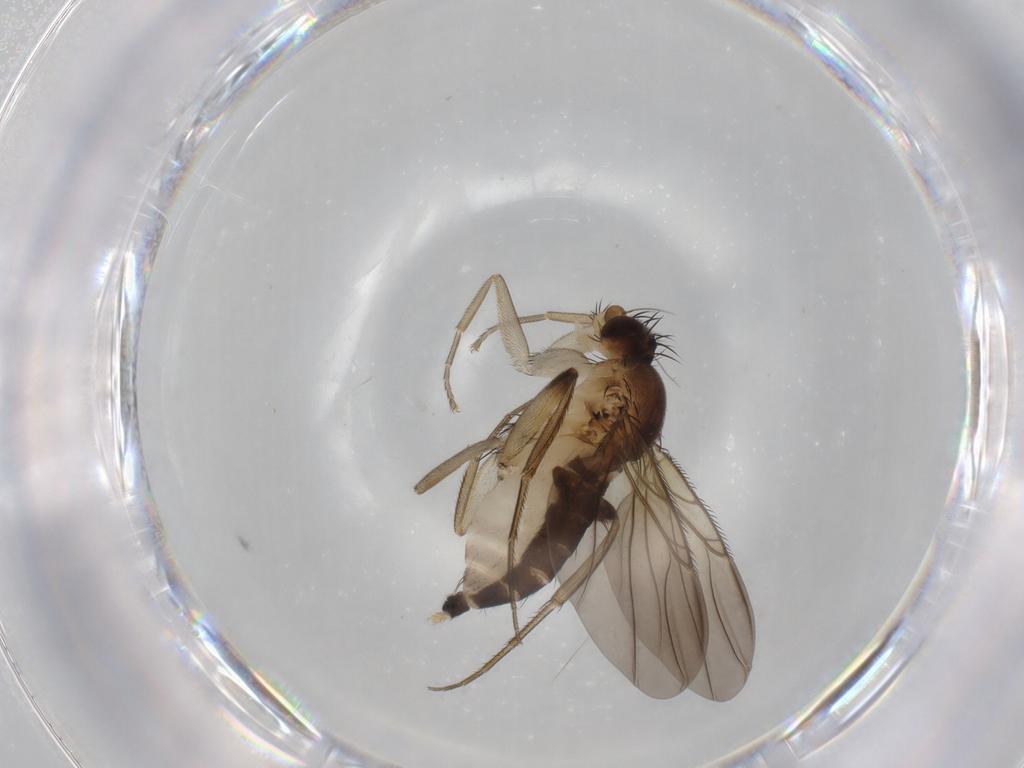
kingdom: Animalia
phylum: Arthropoda
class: Insecta
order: Diptera
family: Phoridae
